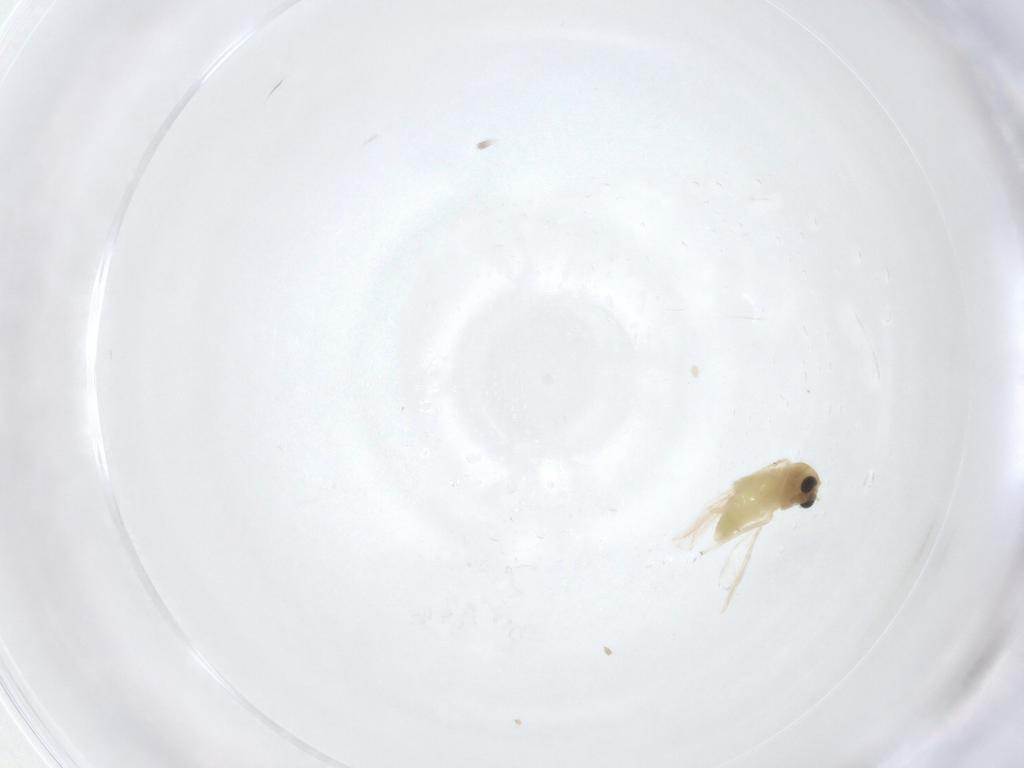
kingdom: Animalia
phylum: Arthropoda
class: Insecta
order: Diptera
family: Chironomidae
